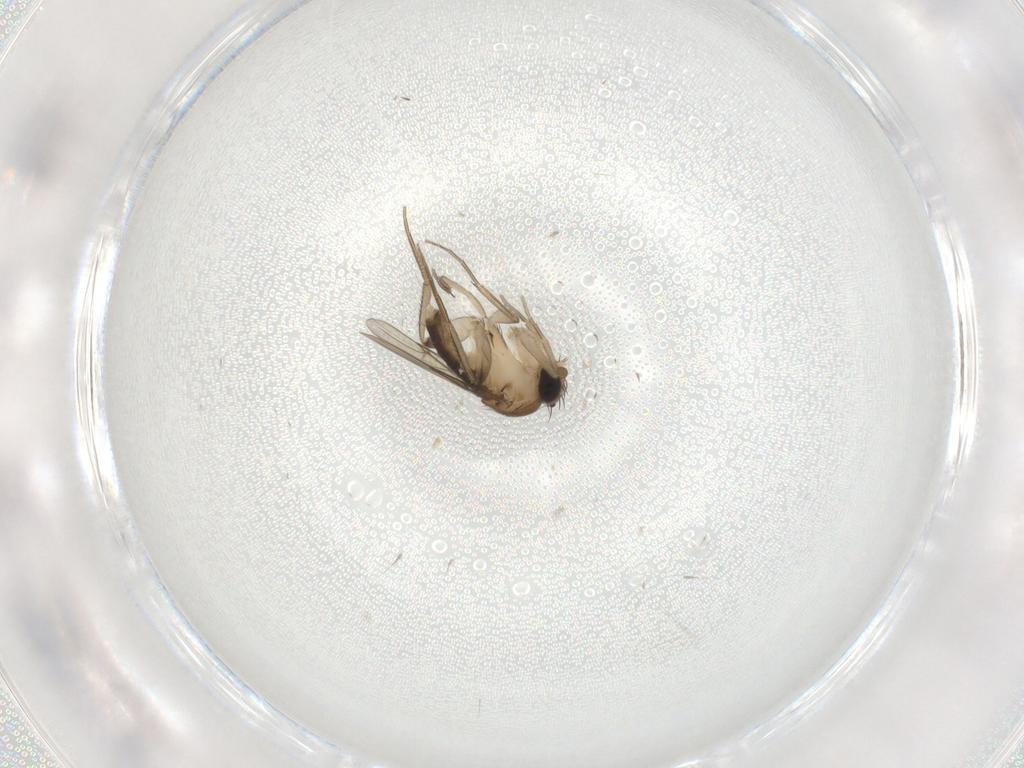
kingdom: Animalia
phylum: Arthropoda
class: Insecta
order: Diptera
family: Phoridae
